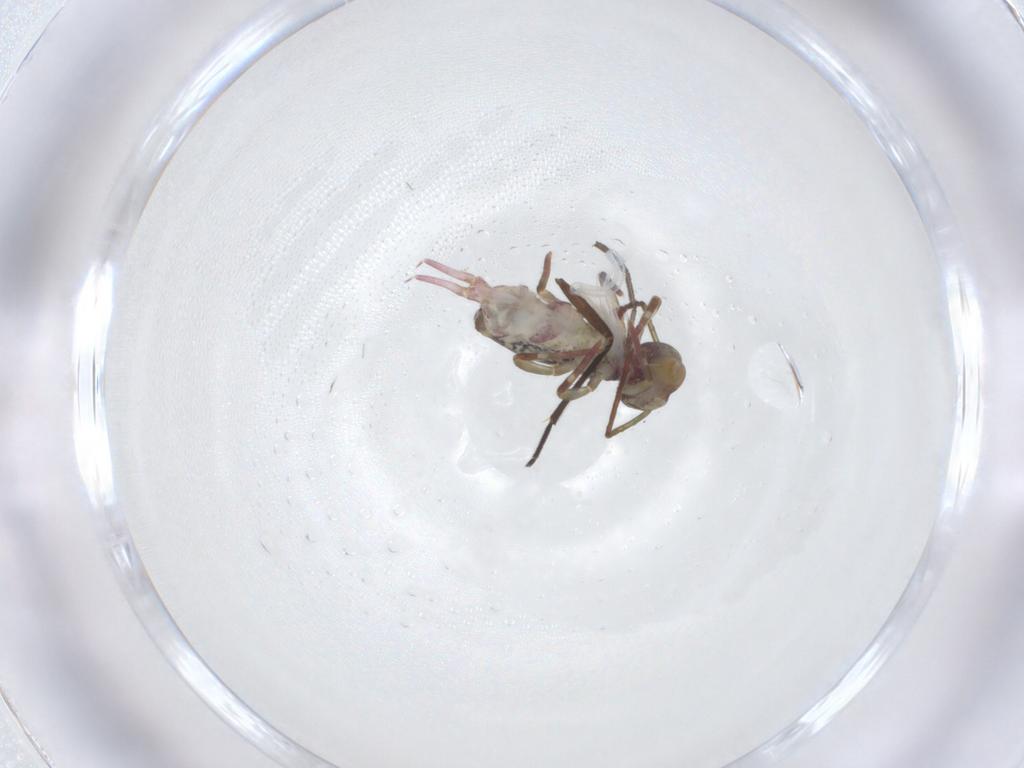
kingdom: Animalia
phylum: Arthropoda
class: Collembola
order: Symphypleona
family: Dicyrtomidae
